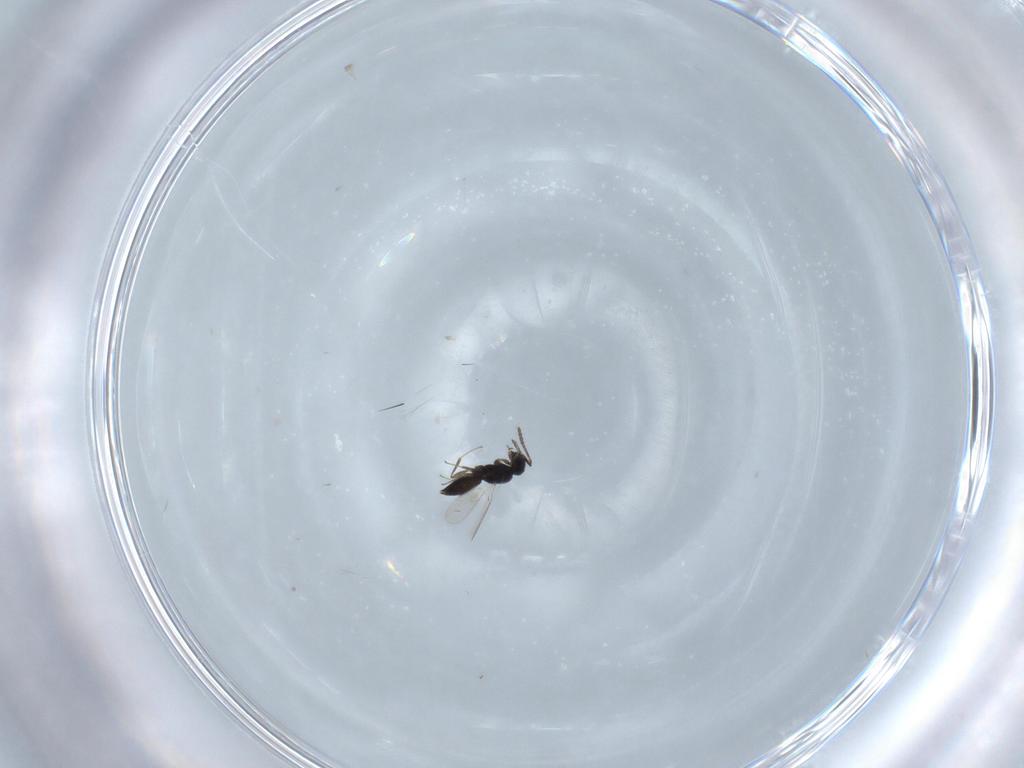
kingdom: Animalia
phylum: Arthropoda
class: Insecta
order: Hymenoptera
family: Scelionidae
